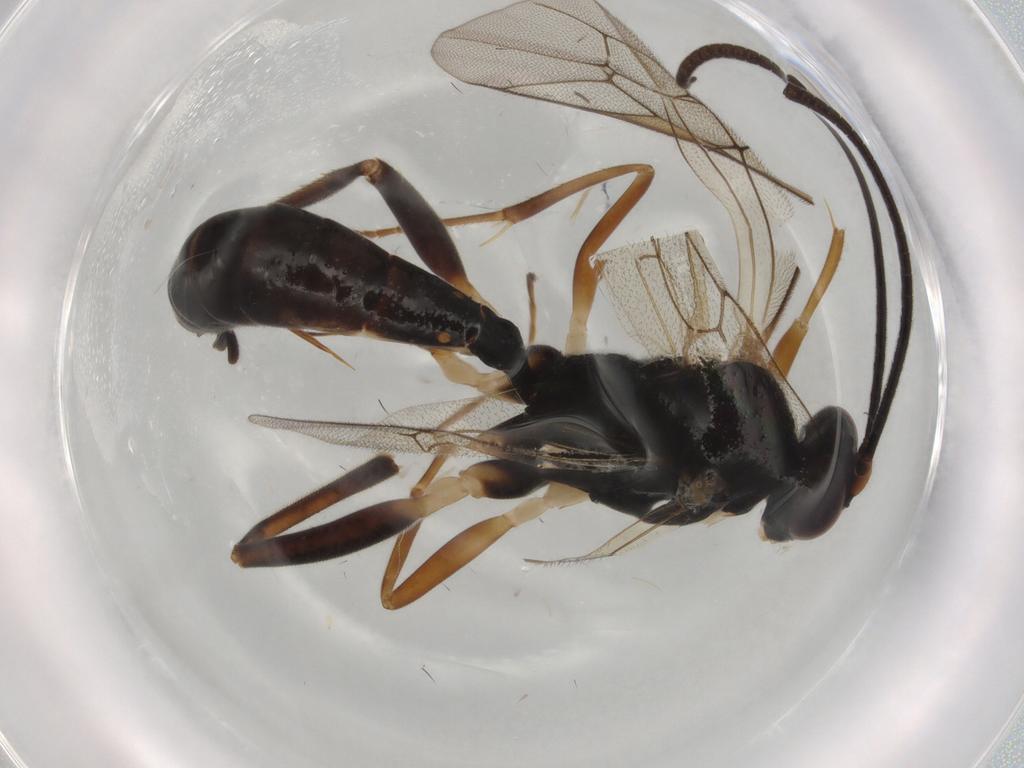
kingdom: Animalia
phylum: Arthropoda
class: Insecta
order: Hymenoptera
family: Ichneumonidae
